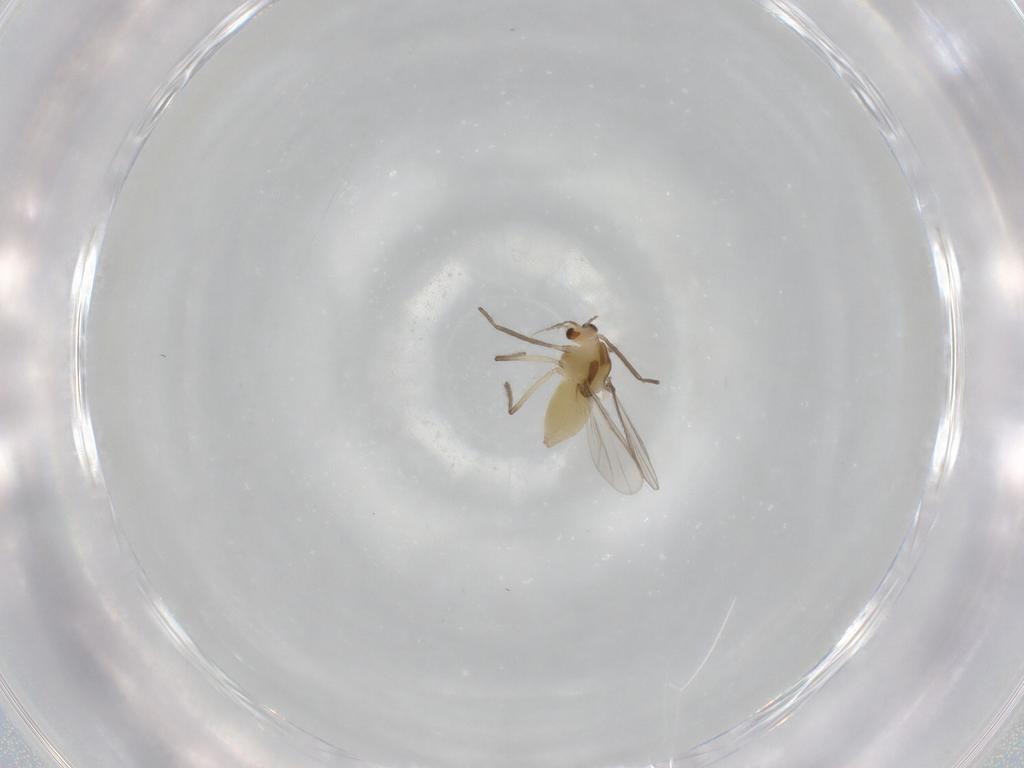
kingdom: Animalia
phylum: Arthropoda
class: Insecta
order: Diptera
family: Chironomidae
